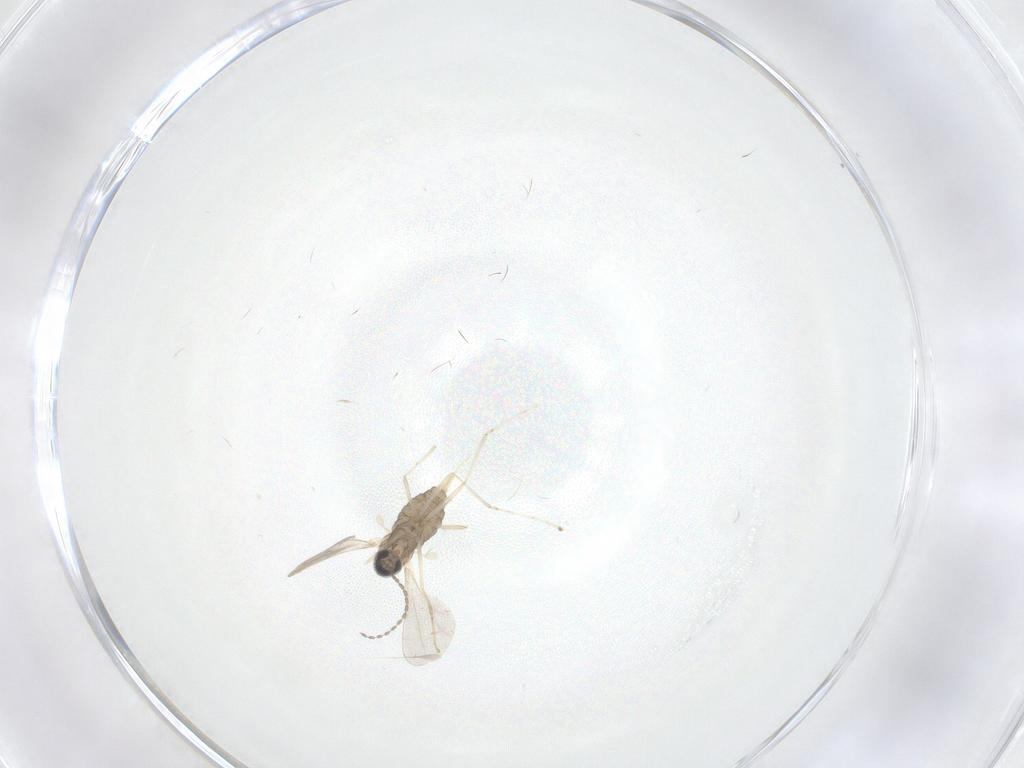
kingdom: Animalia
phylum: Arthropoda
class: Insecta
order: Diptera
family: Cecidomyiidae
